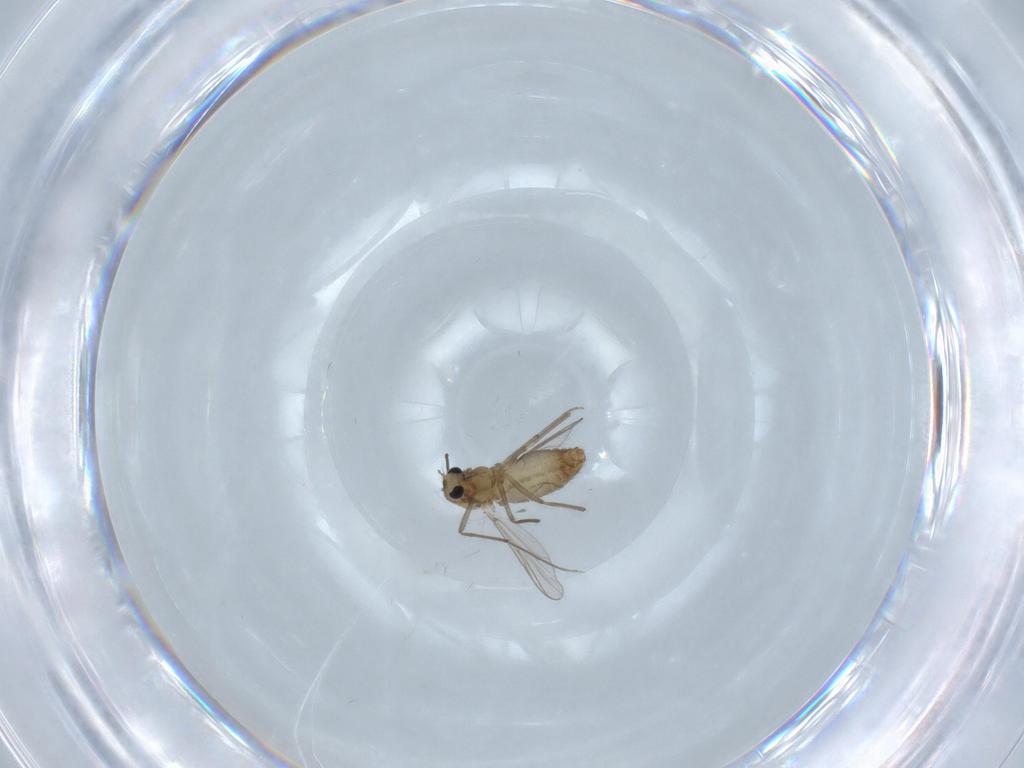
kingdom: Animalia
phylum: Arthropoda
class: Insecta
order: Diptera
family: Chironomidae
